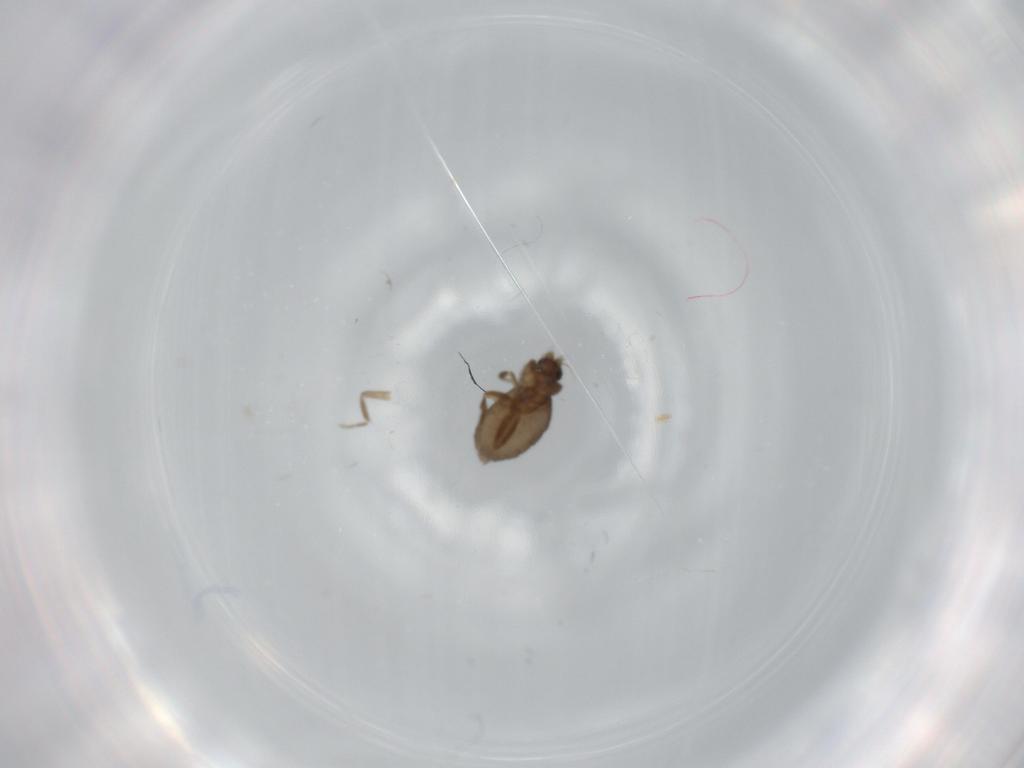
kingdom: Animalia
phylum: Arthropoda
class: Insecta
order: Diptera
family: Phoridae
